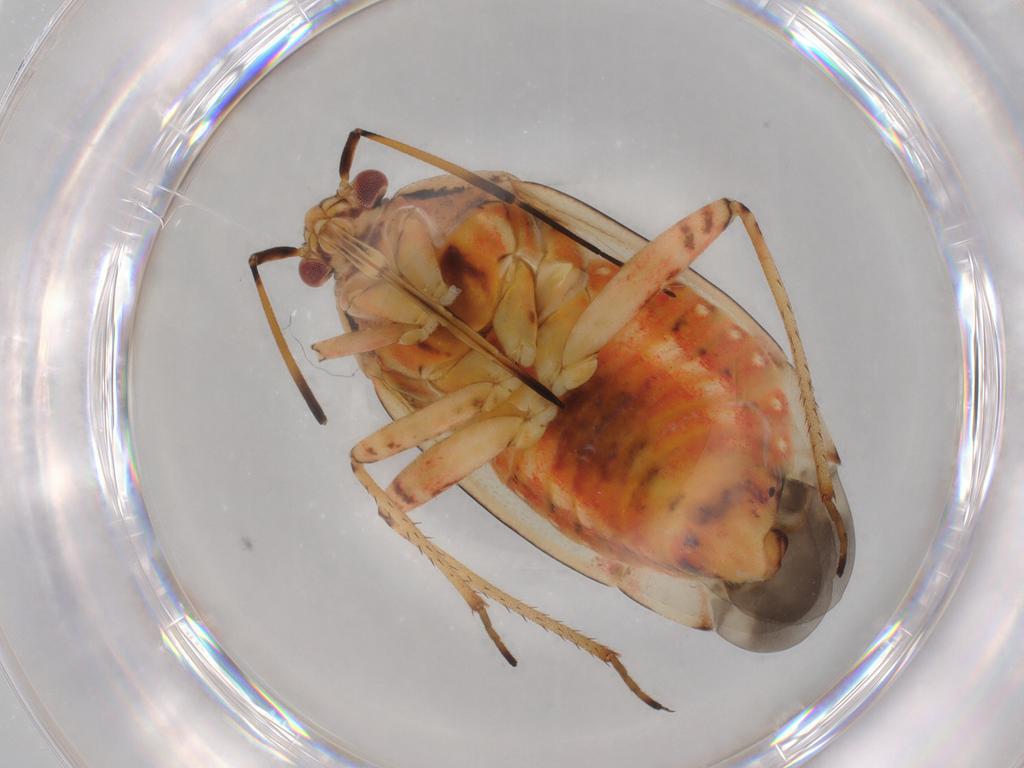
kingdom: Animalia
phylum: Arthropoda
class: Insecta
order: Hemiptera
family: Miridae
